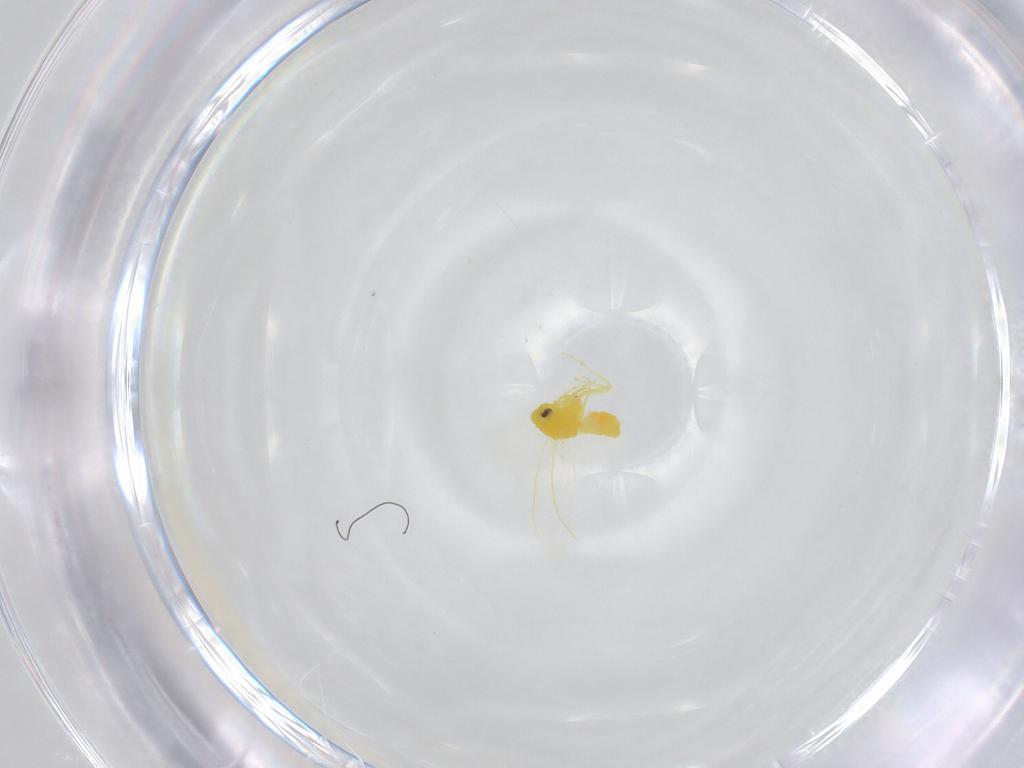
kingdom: Animalia
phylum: Arthropoda
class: Insecta
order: Hemiptera
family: Aleyrodidae
